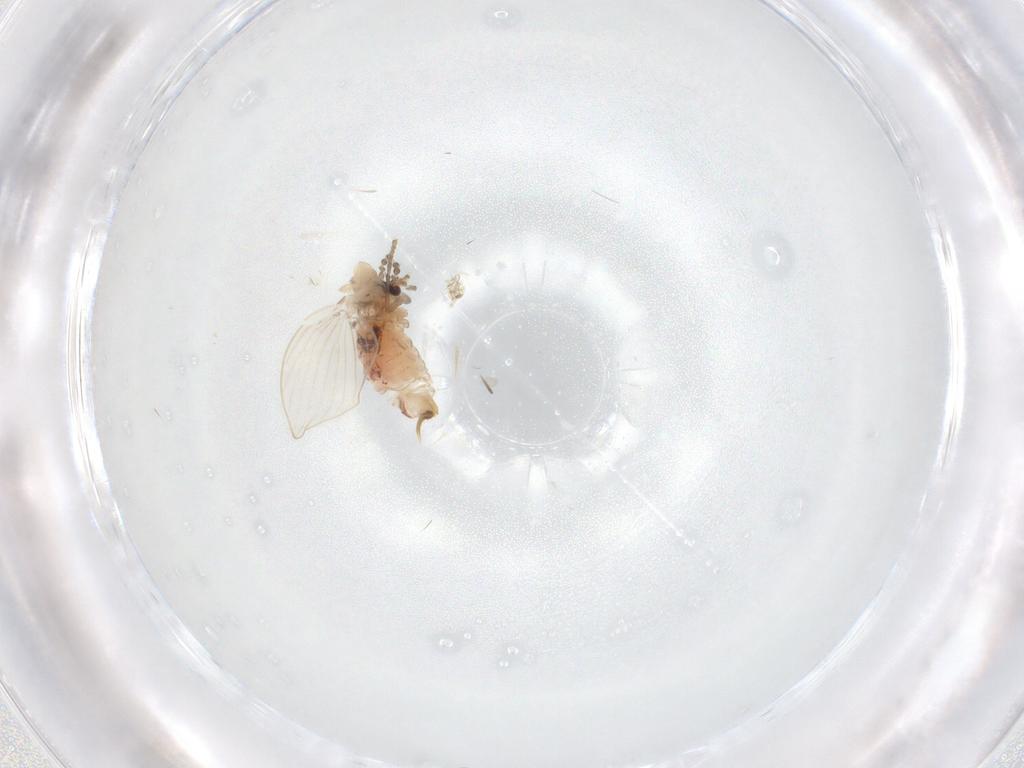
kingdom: Animalia
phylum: Arthropoda
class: Insecta
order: Diptera
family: Psychodidae
